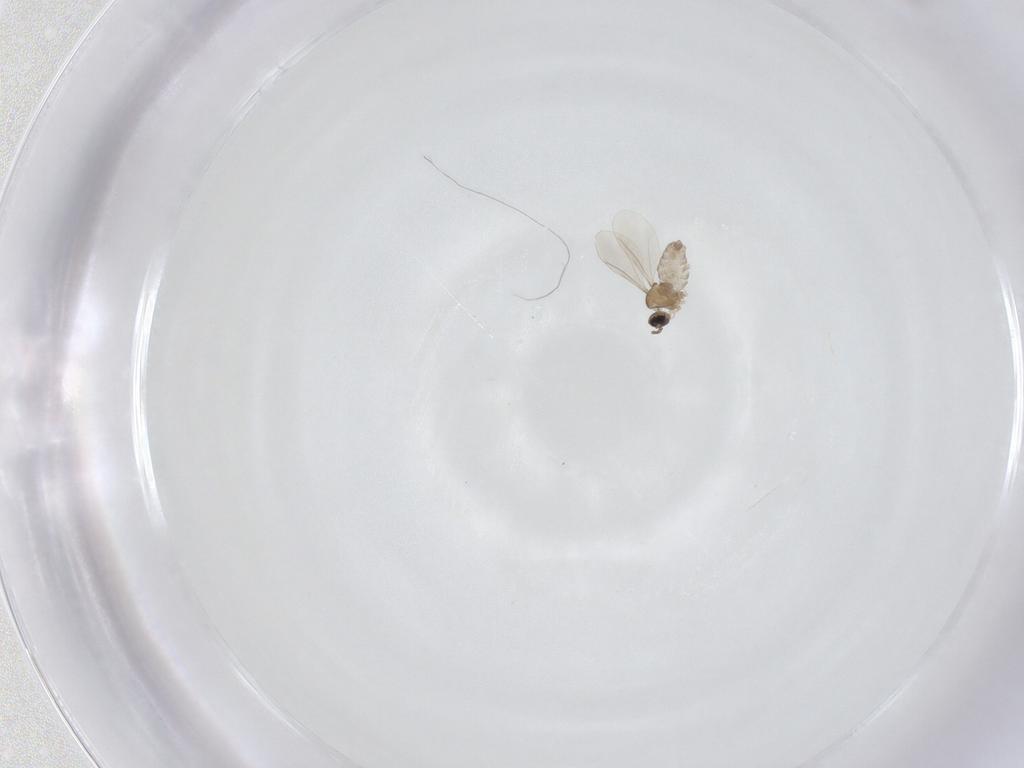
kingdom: Animalia
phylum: Arthropoda
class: Insecta
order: Diptera
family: Cecidomyiidae
